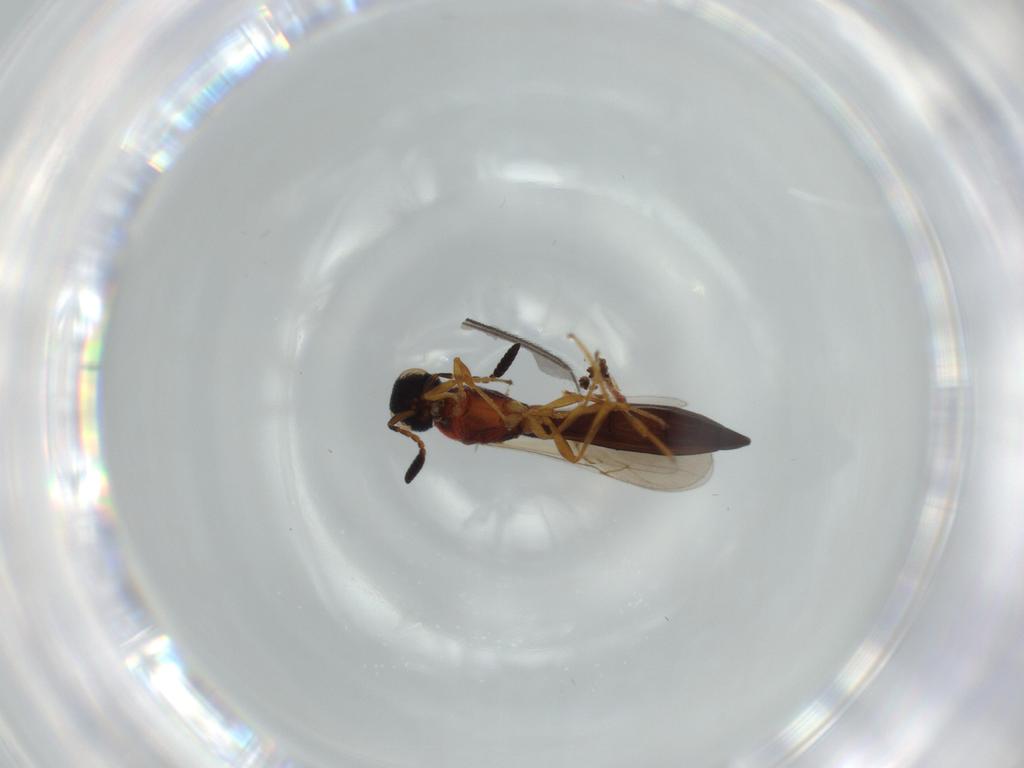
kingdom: Animalia
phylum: Arthropoda
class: Insecta
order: Hymenoptera
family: Scelionidae
